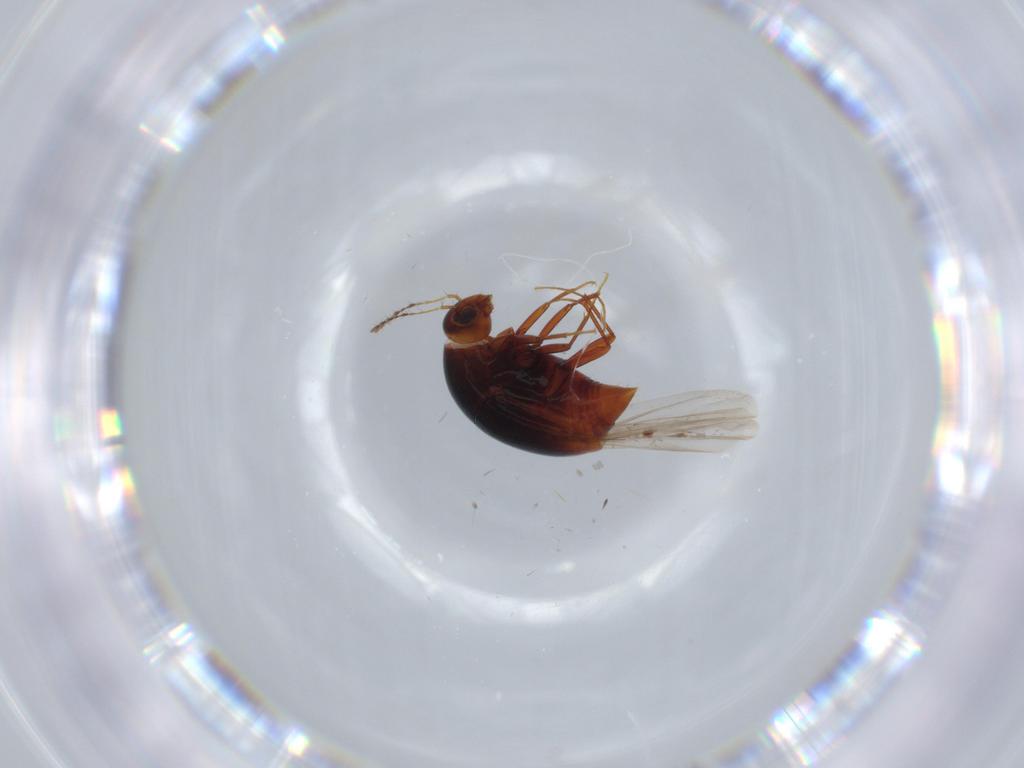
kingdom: Animalia
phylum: Arthropoda
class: Insecta
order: Coleoptera
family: Staphylinidae
